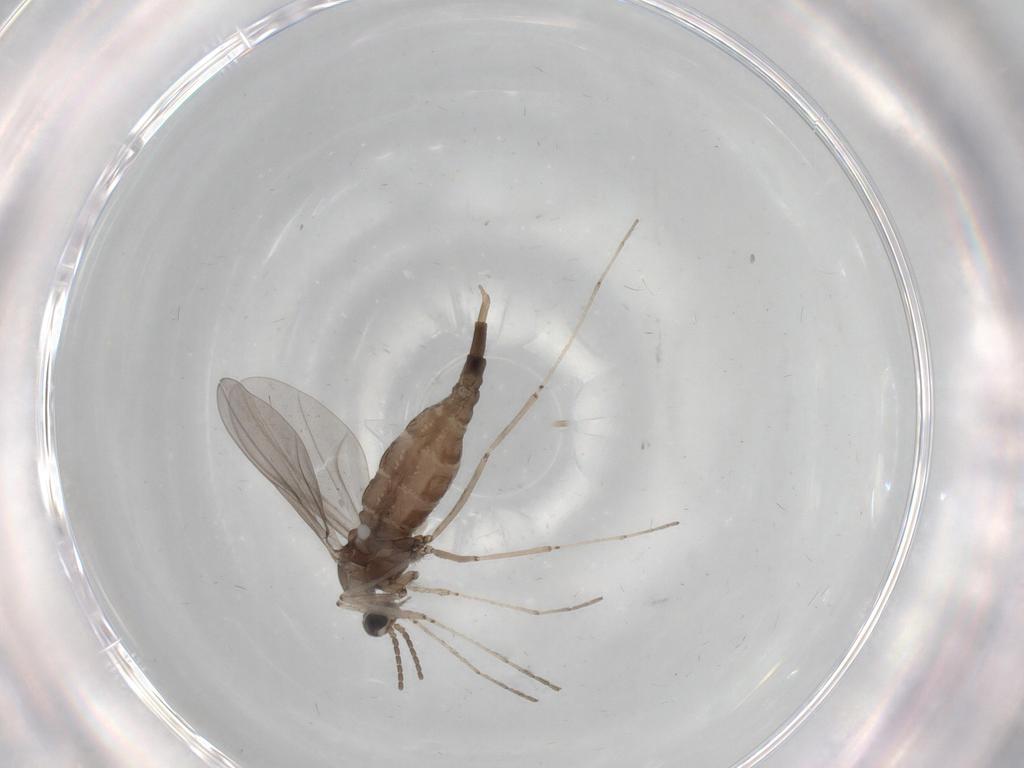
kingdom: Animalia
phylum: Arthropoda
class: Insecta
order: Diptera
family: Cecidomyiidae
